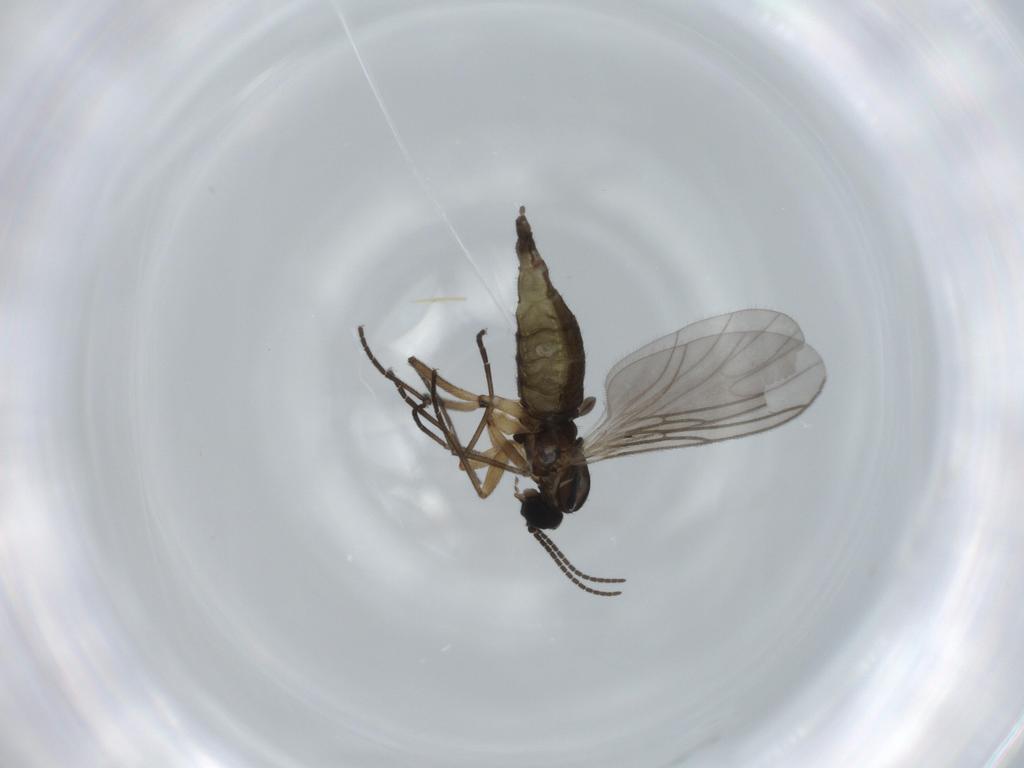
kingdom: Animalia
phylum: Arthropoda
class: Insecta
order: Diptera
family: Sciaridae
